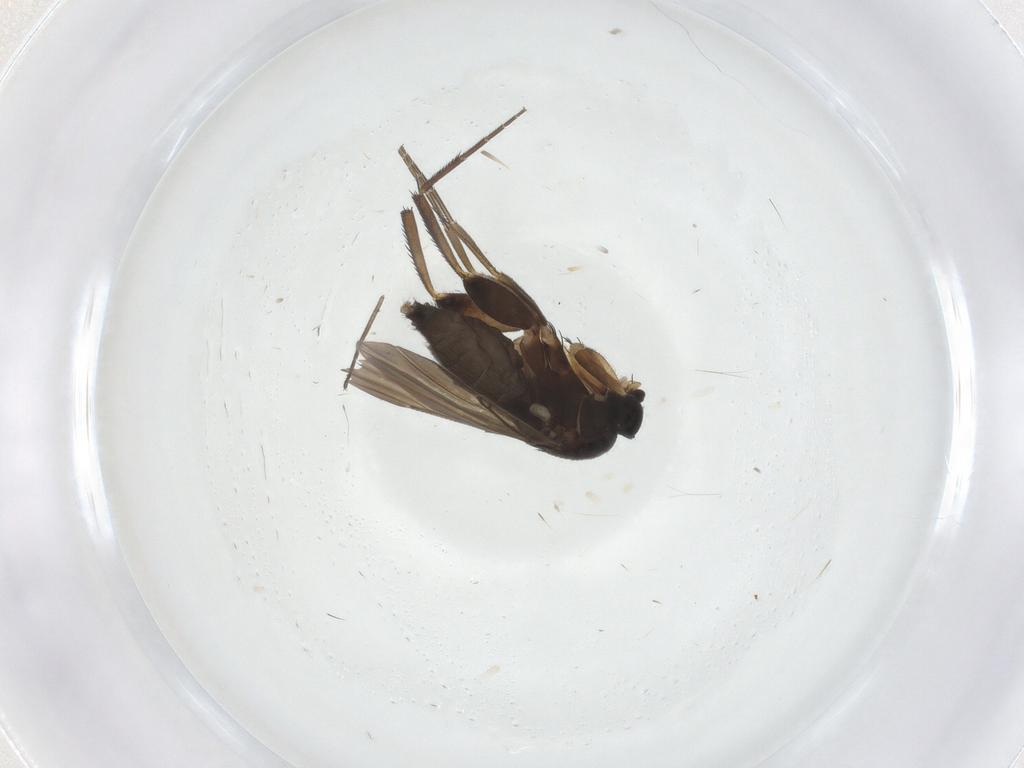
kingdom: Animalia
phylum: Arthropoda
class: Insecta
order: Diptera
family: Phoridae
